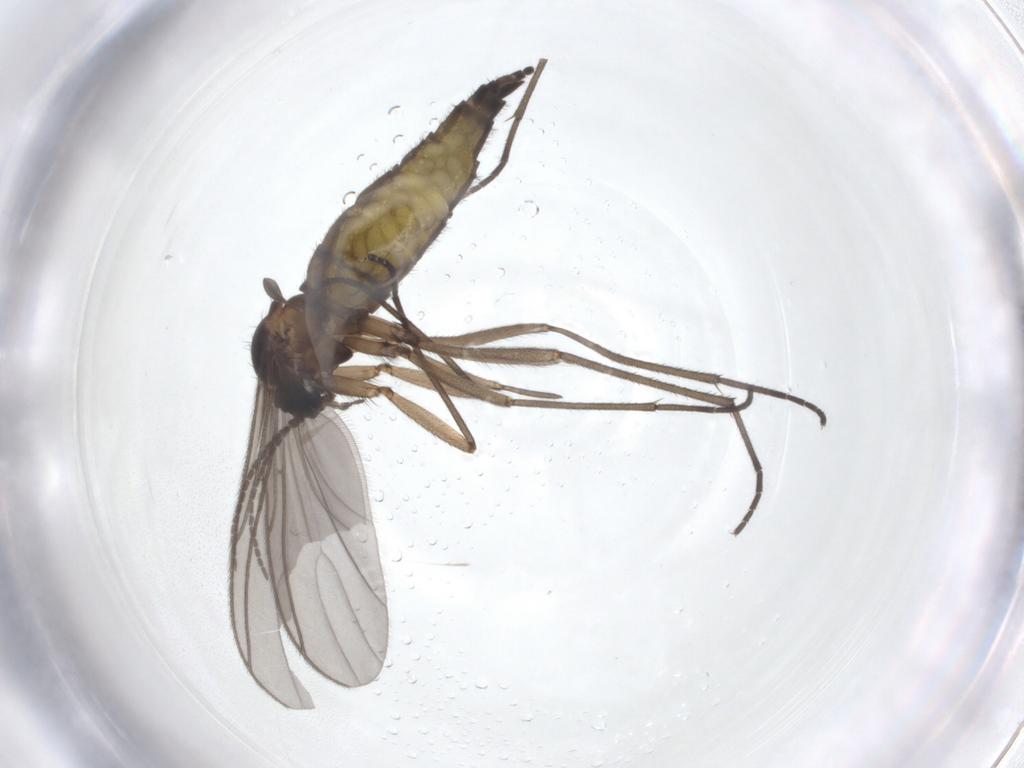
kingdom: Animalia
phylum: Arthropoda
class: Insecta
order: Diptera
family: Sciaridae
